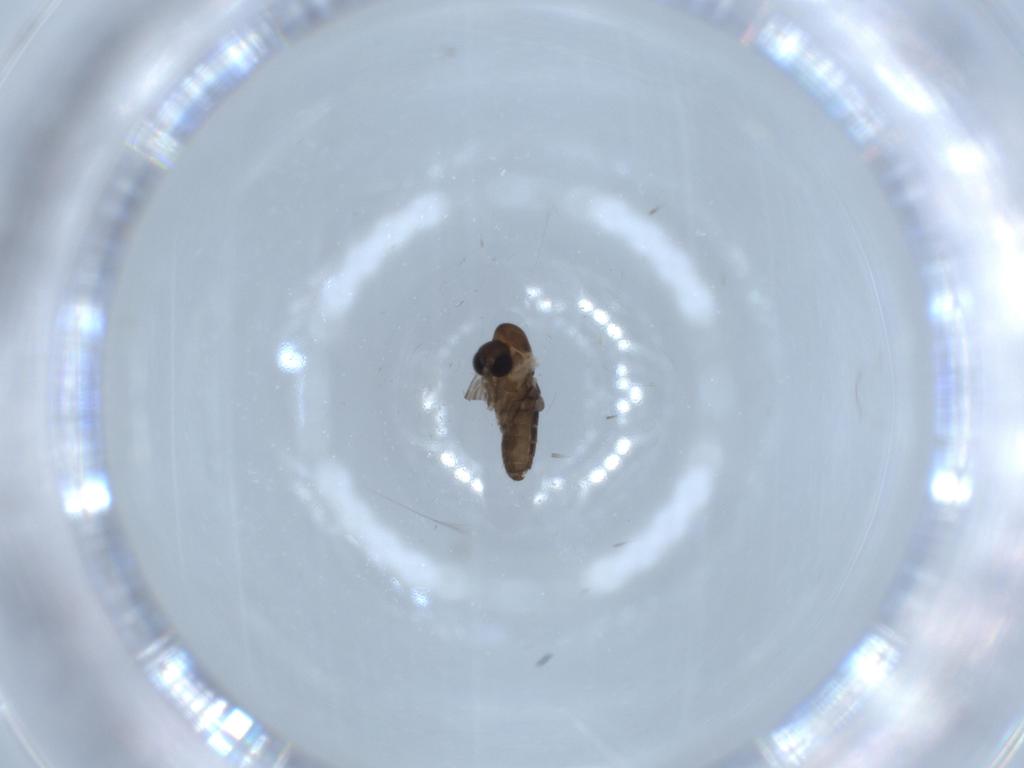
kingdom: Animalia
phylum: Arthropoda
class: Insecta
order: Diptera
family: Psychodidae
